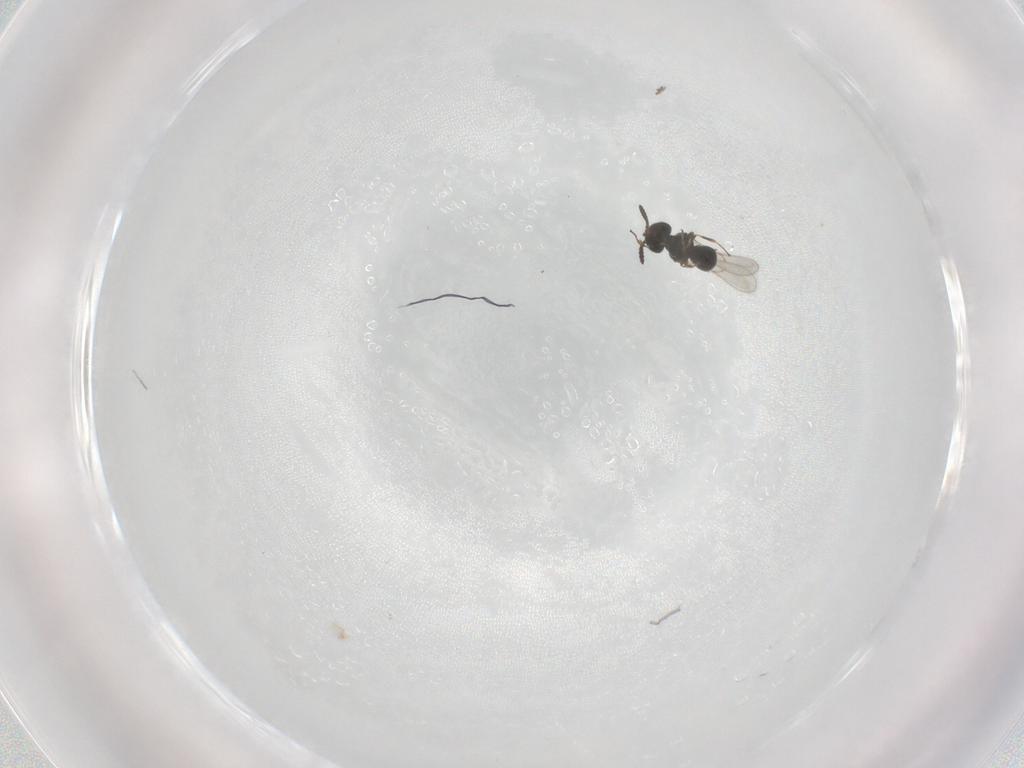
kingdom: Animalia
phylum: Arthropoda
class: Insecta
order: Hymenoptera
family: Scelionidae
